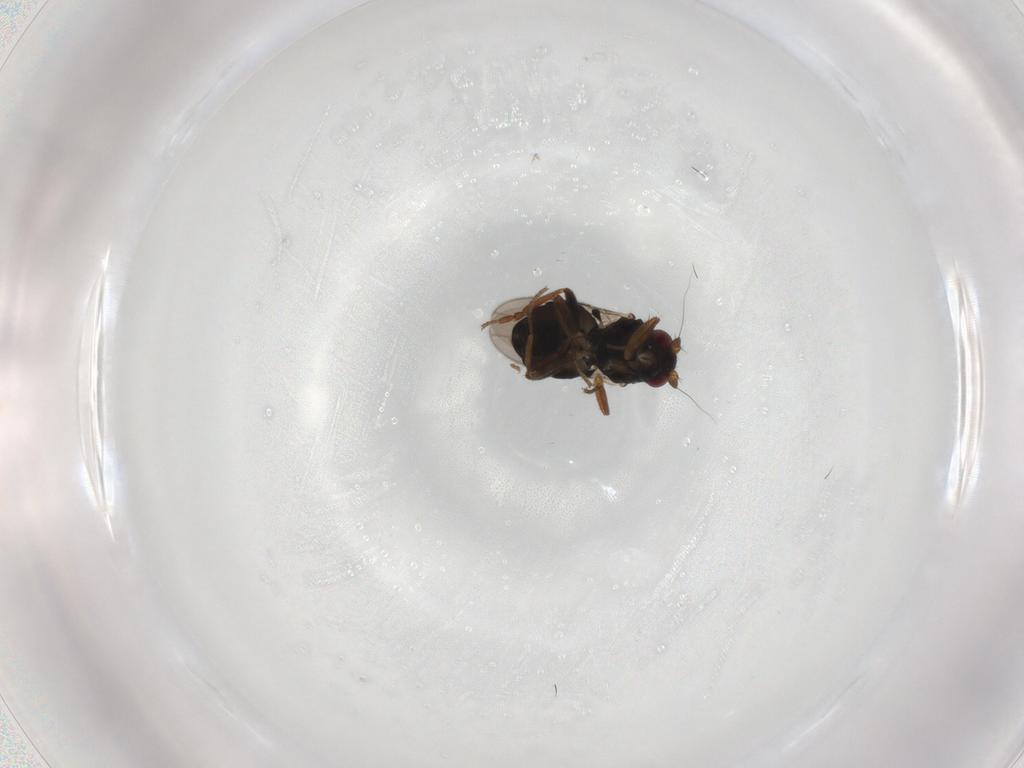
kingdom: Animalia
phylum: Arthropoda
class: Insecta
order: Diptera
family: Sphaeroceridae
